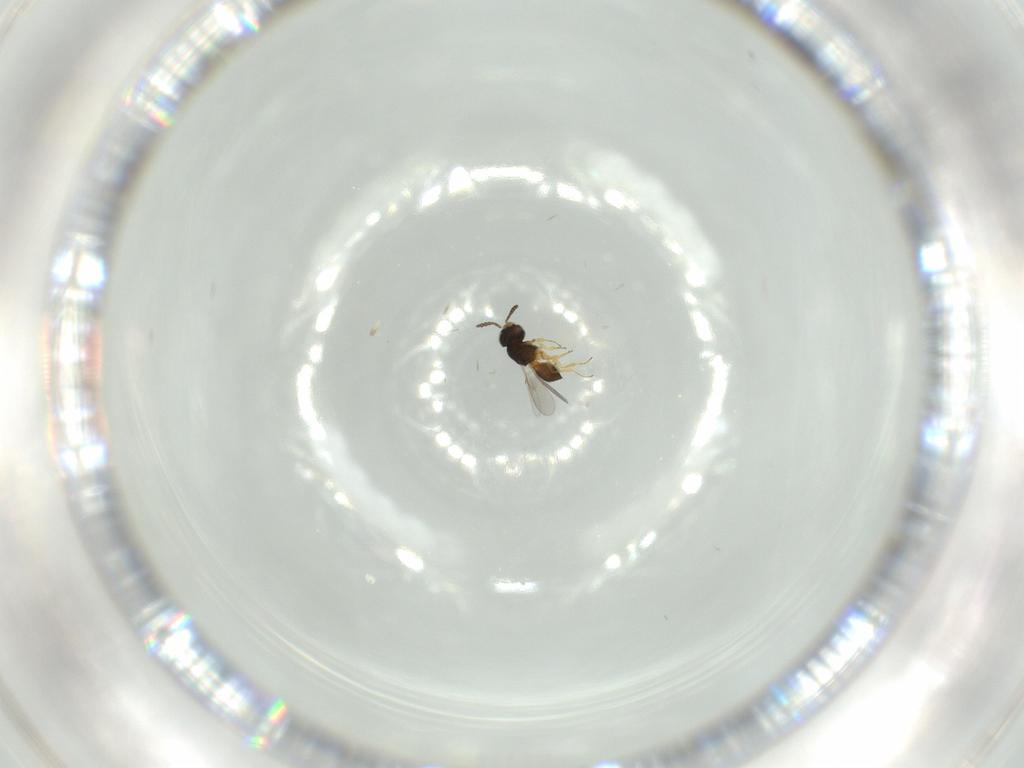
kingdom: Animalia
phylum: Arthropoda
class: Insecta
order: Hymenoptera
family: Scelionidae
